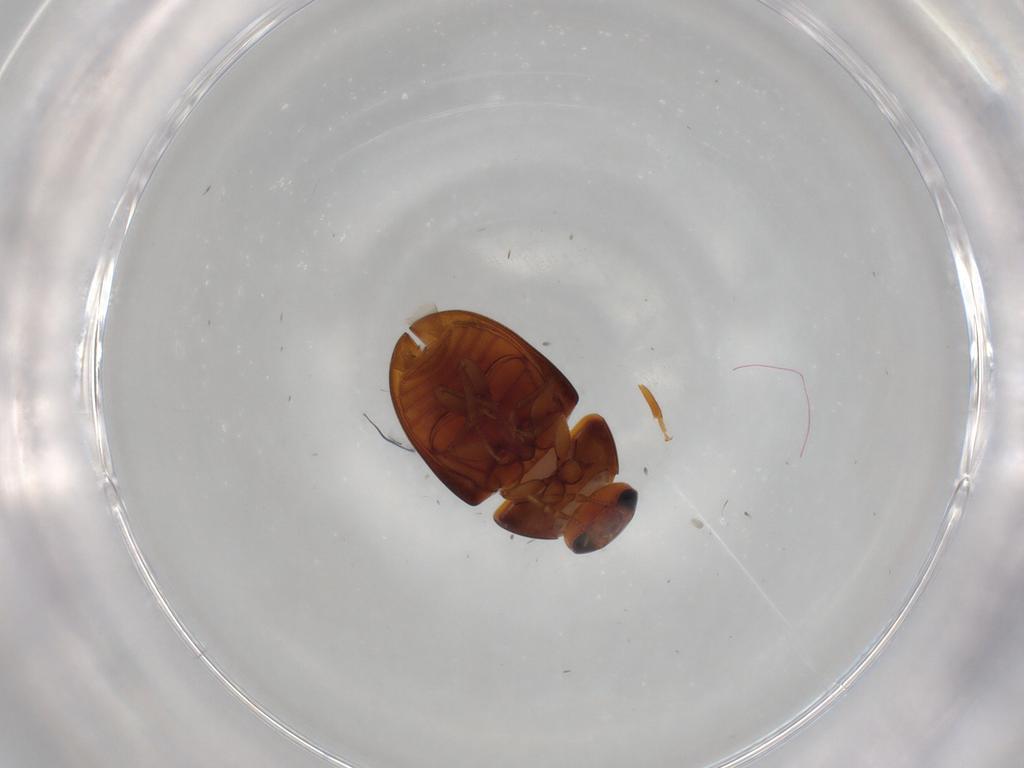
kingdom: Animalia
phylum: Arthropoda
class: Insecta
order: Coleoptera
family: Phalacridae
